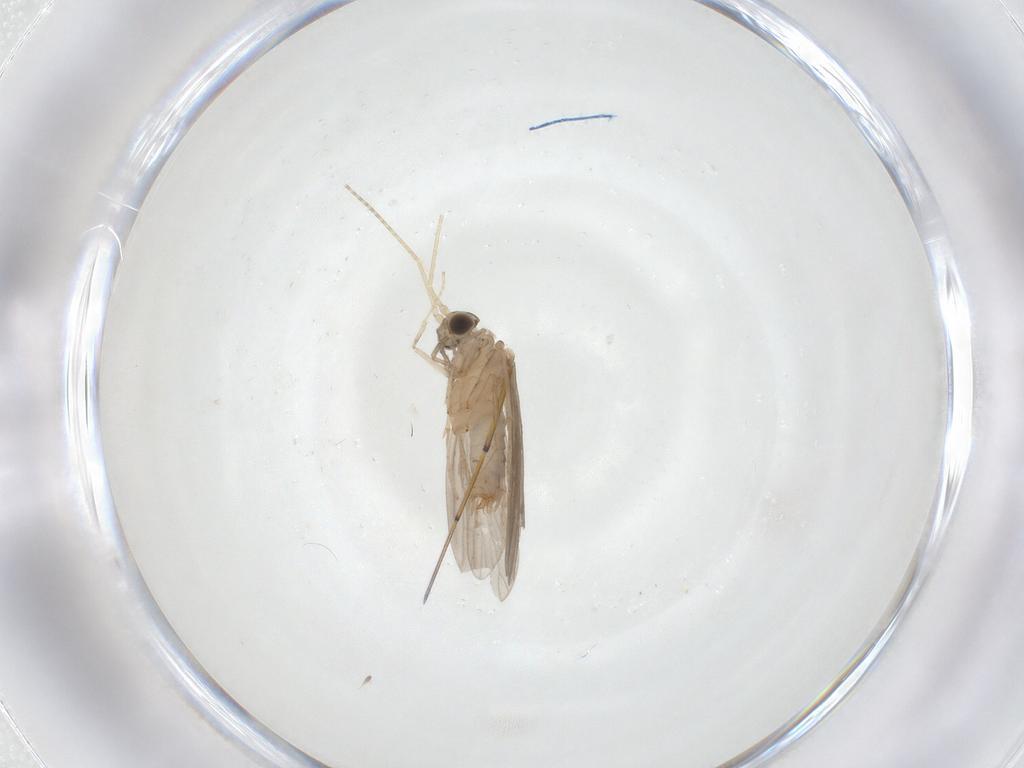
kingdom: Animalia
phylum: Arthropoda
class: Insecta
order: Trichoptera
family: Psychomyiidae
